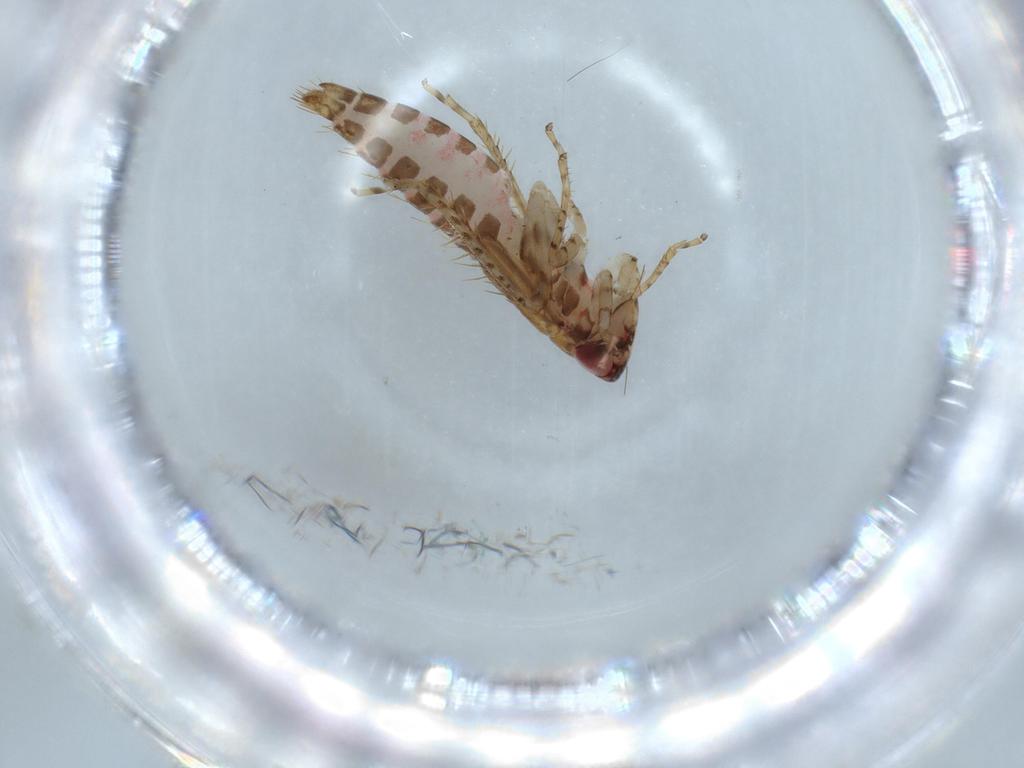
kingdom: Animalia
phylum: Arthropoda
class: Insecta
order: Hemiptera
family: Cicadellidae
